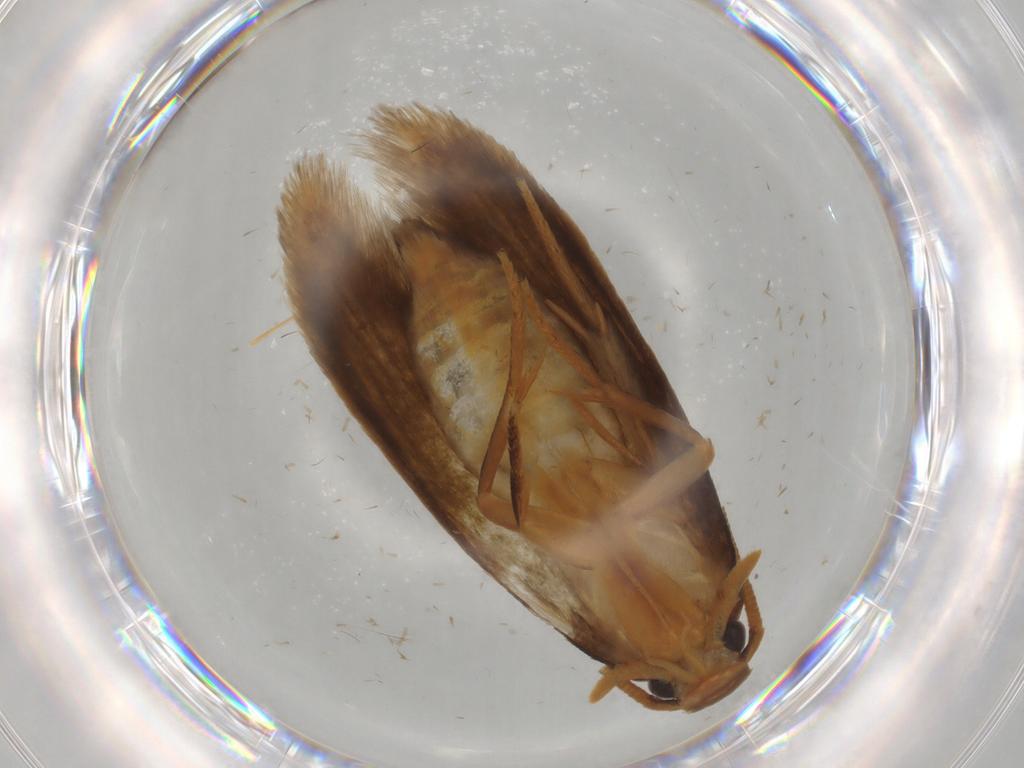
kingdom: Animalia
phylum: Arthropoda
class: Insecta
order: Lepidoptera
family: Tineidae
